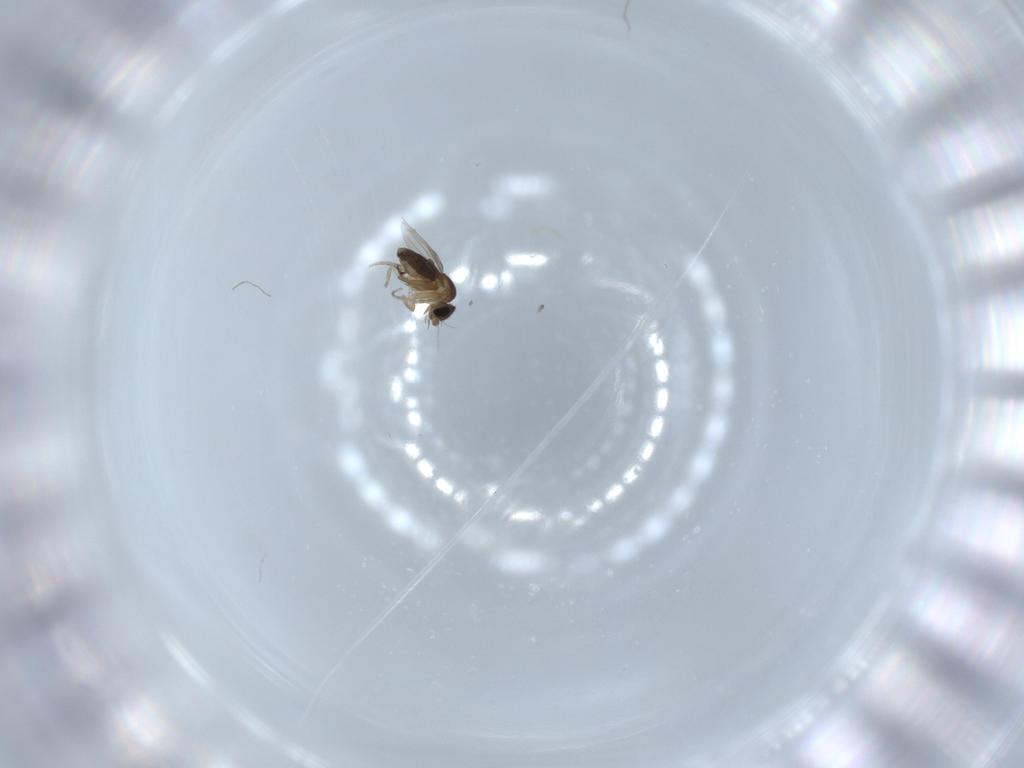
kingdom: Animalia
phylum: Arthropoda
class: Insecta
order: Diptera
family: Phoridae
